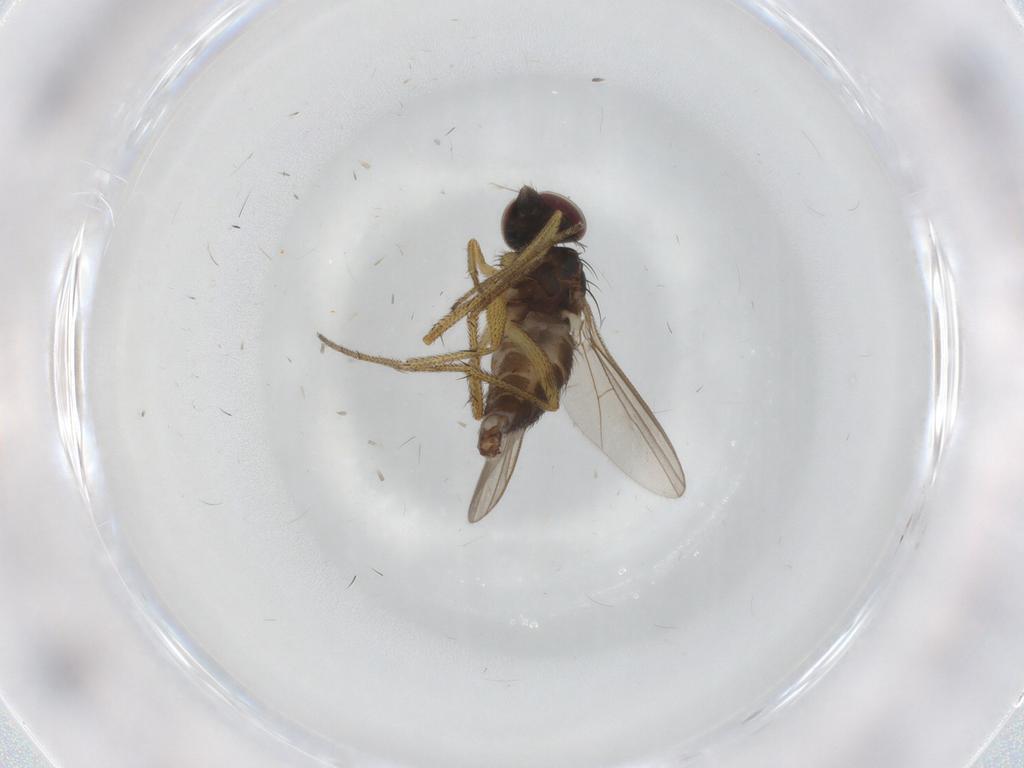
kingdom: Animalia
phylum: Arthropoda
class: Insecta
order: Diptera
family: Dolichopodidae
